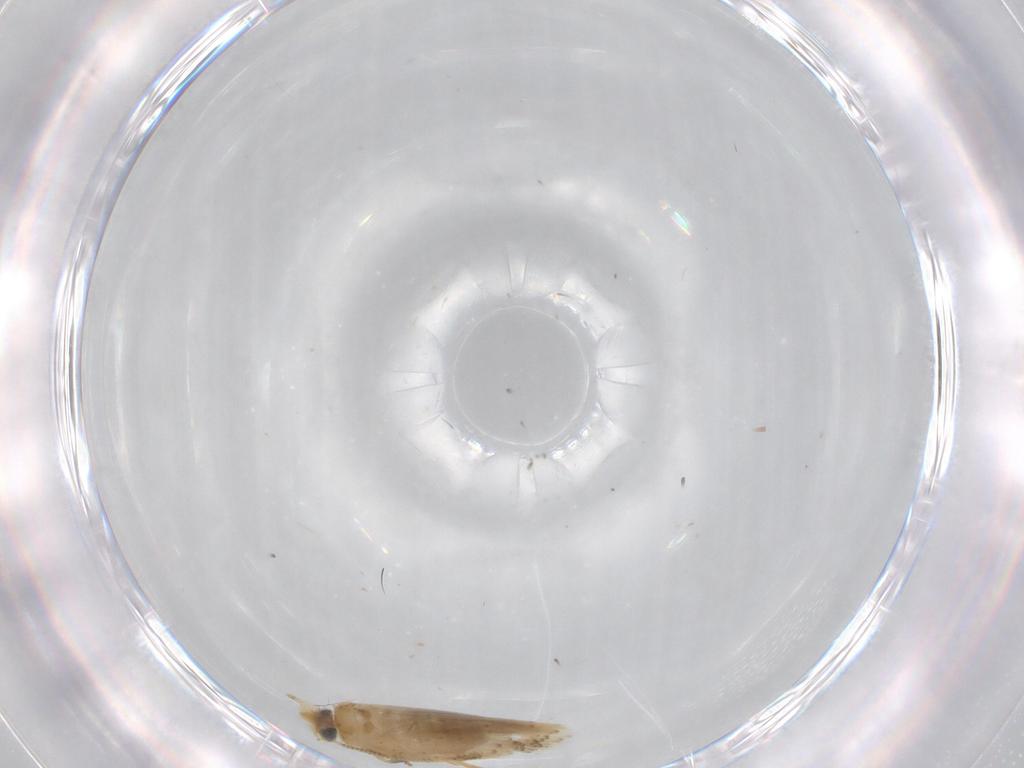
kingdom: Animalia
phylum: Arthropoda
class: Insecta
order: Lepidoptera
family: Nepticulidae
